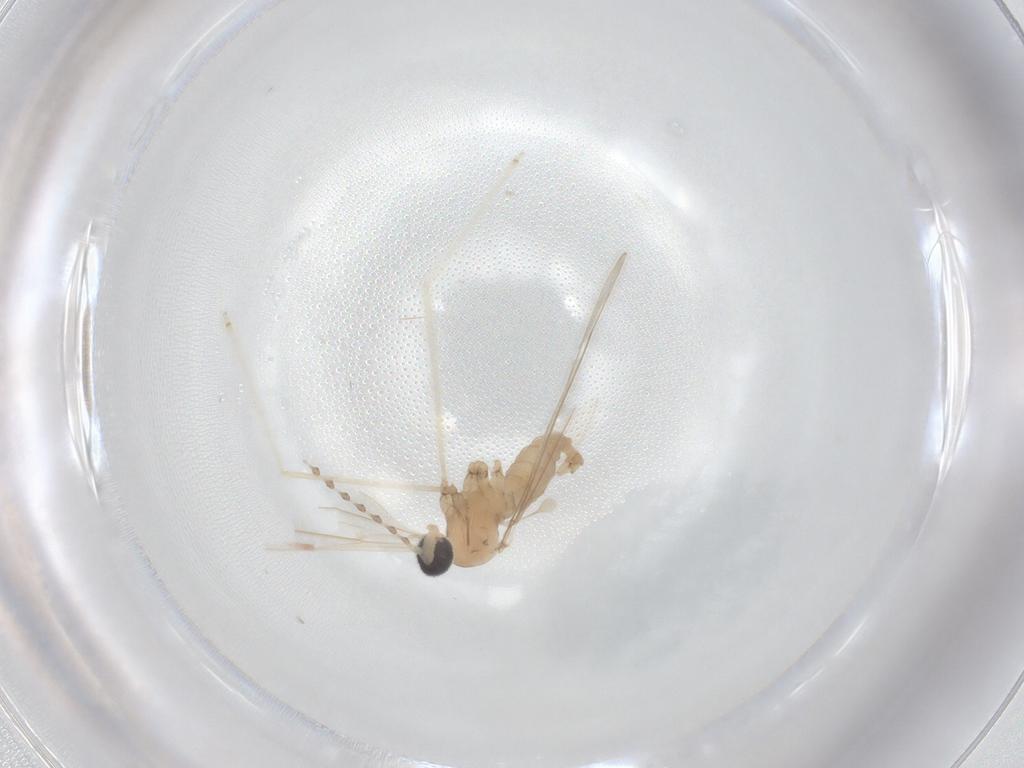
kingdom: Animalia
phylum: Arthropoda
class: Insecta
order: Diptera
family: Cecidomyiidae
